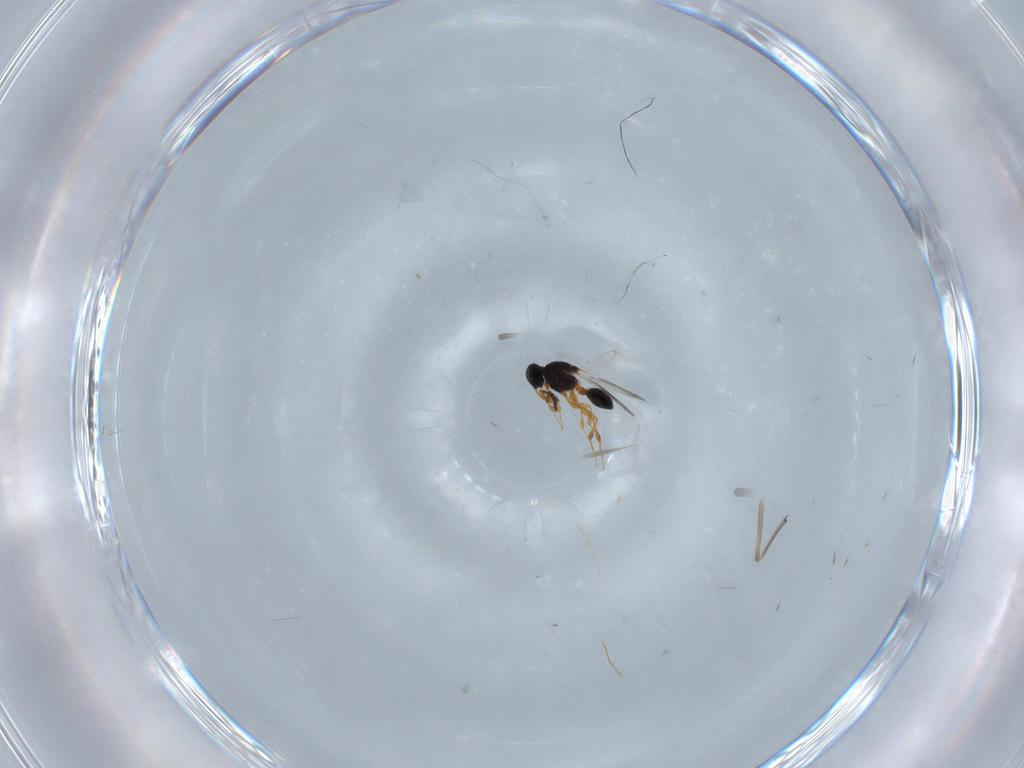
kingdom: Animalia
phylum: Arthropoda
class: Insecta
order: Hymenoptera
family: Platygastridae
